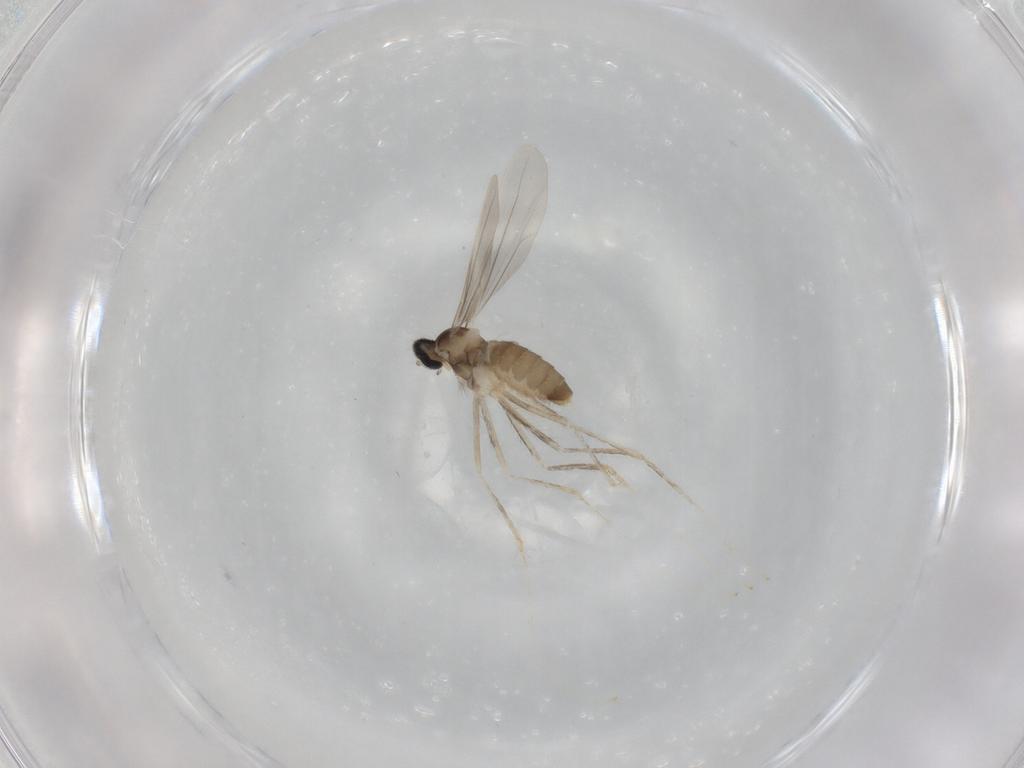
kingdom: Animalia
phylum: Arthropoda
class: Insecta
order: Diptera
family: Cecidomyiidae
